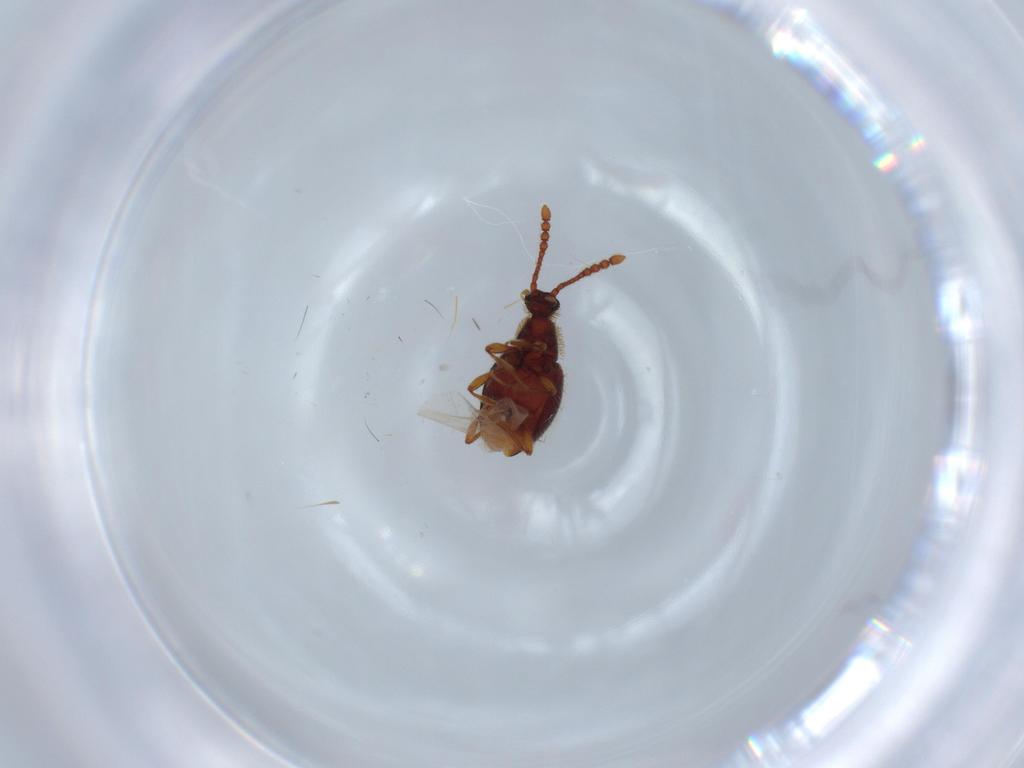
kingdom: Animalia
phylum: Arthropoda
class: Insecta
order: Coleoptera
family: Staphylinidae
